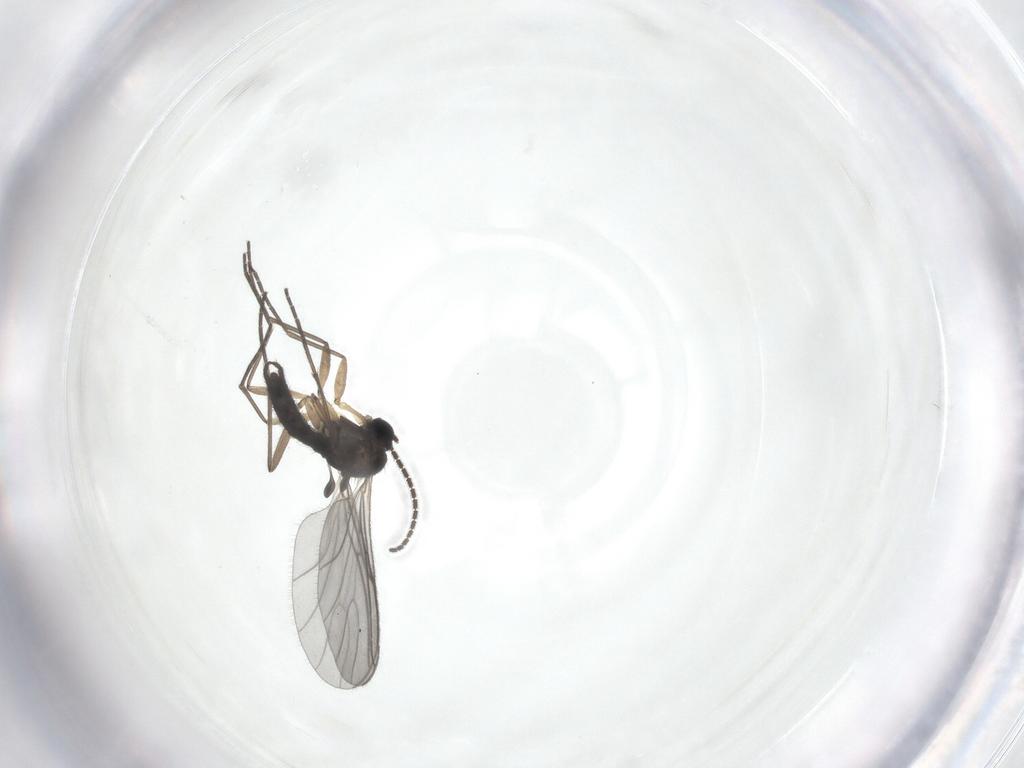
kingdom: Animalia
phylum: Arthropoda
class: Insecta
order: Diptera
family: Sciaridae
